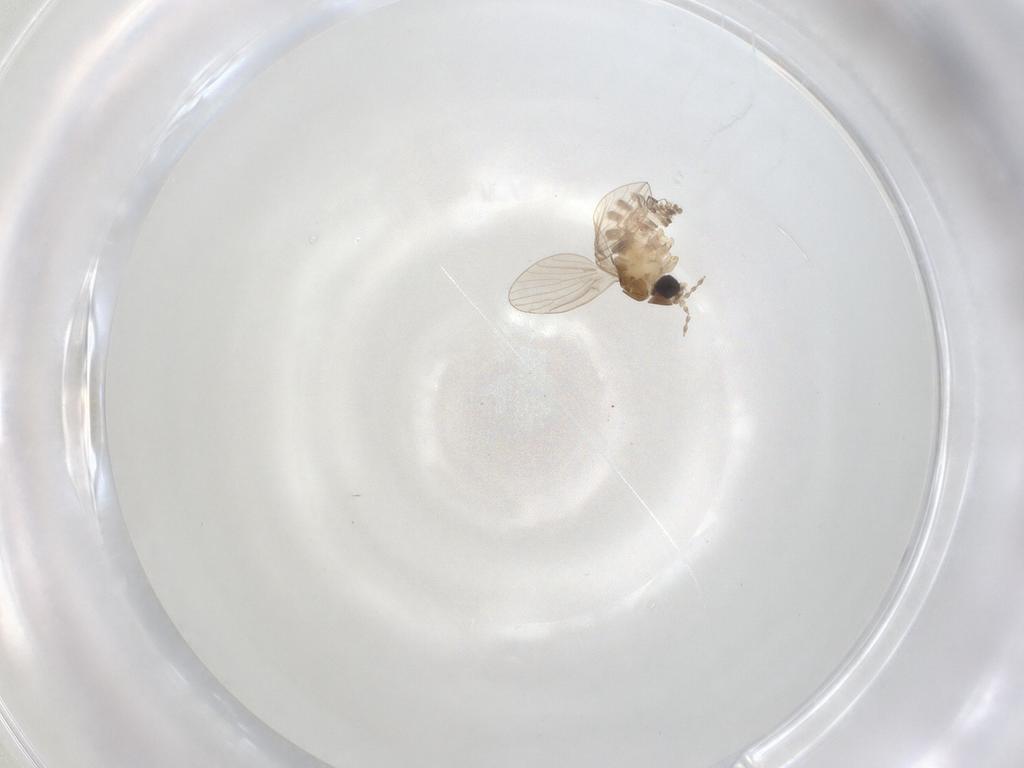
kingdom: Animalia
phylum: Arthropoda
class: Insecta
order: Diptera
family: Psychodidae
